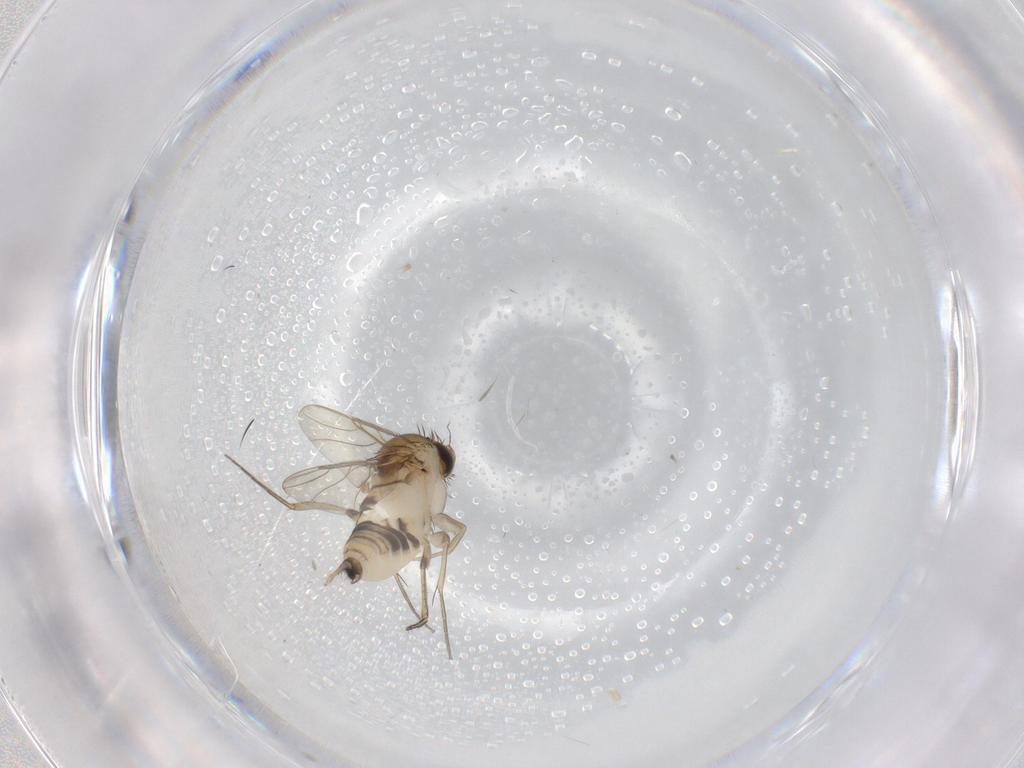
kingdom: Animalia
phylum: Arthropoda
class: Insecta
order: Diptera
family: Phoridae
